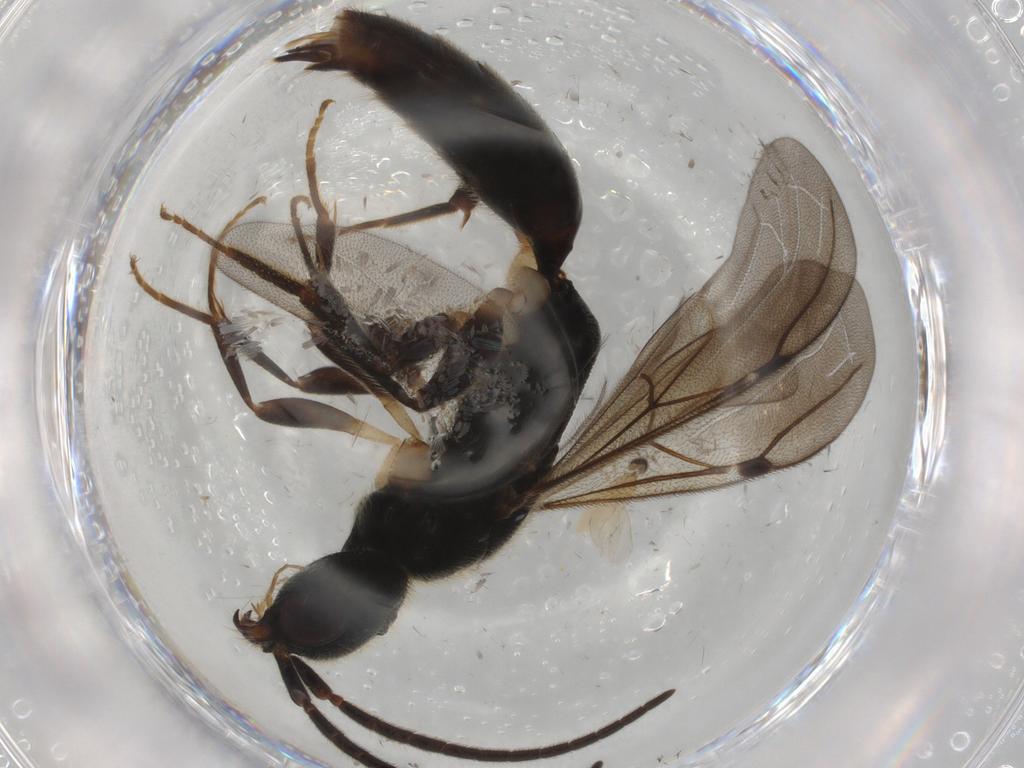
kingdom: Animalia
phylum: Arthropoda
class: Insecta
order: Hymenoptera
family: Bethylidae
